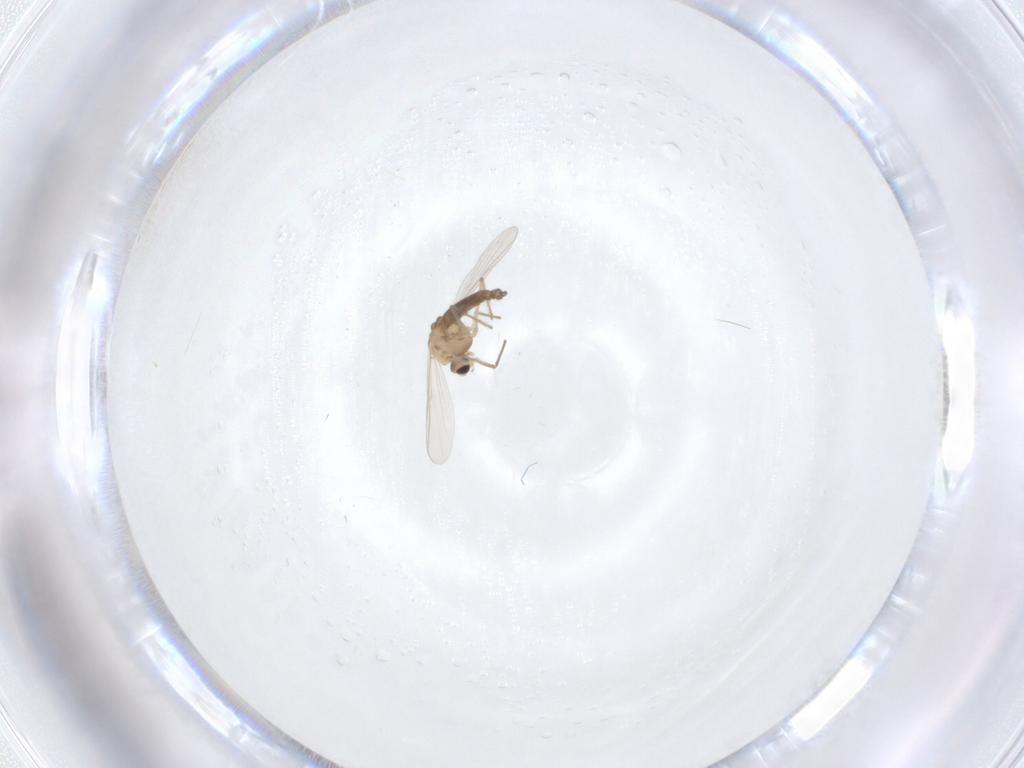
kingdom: Animalia
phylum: Arthropoda
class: Insecta
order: Diptera
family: Chironomidae
